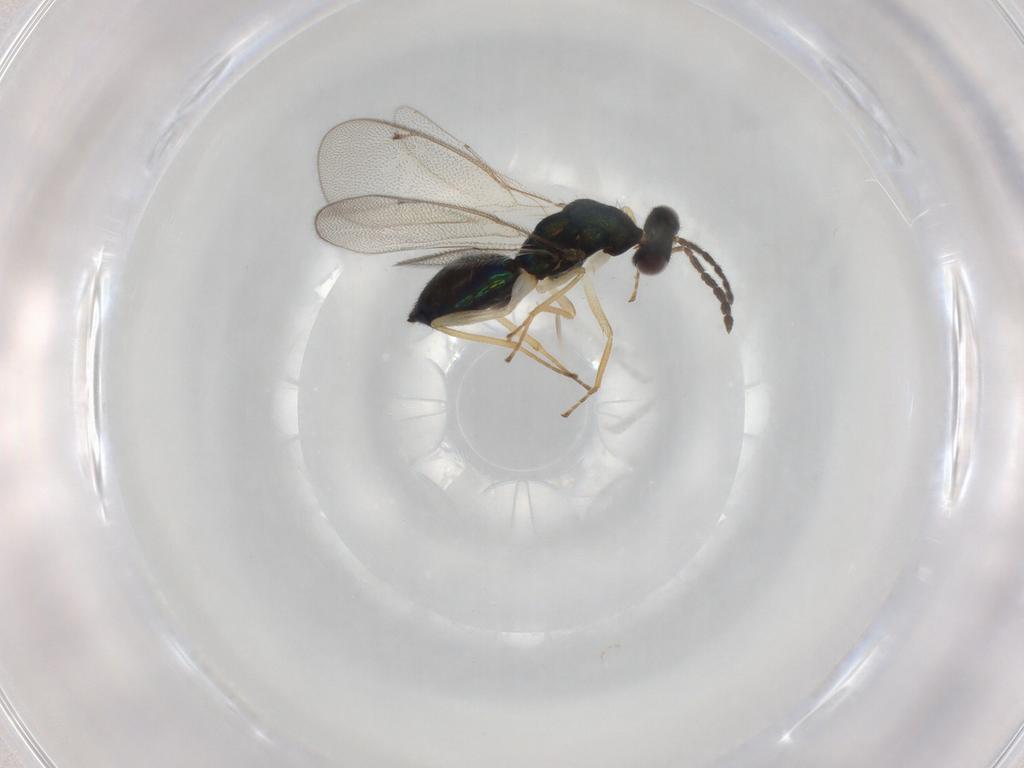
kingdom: Animalia
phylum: Arthropoda
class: Insecta
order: Hymenoptera
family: Eulophidae
